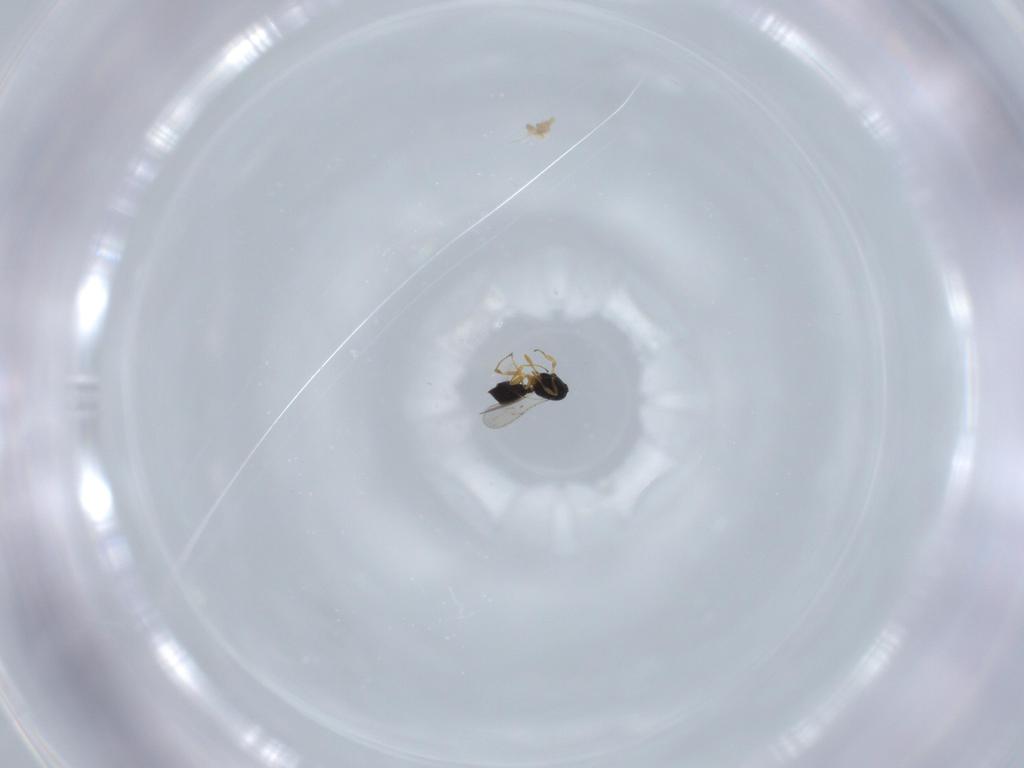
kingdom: Animalia
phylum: Arthropoda
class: Insecta
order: Hymenoptera
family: Scelionidae
